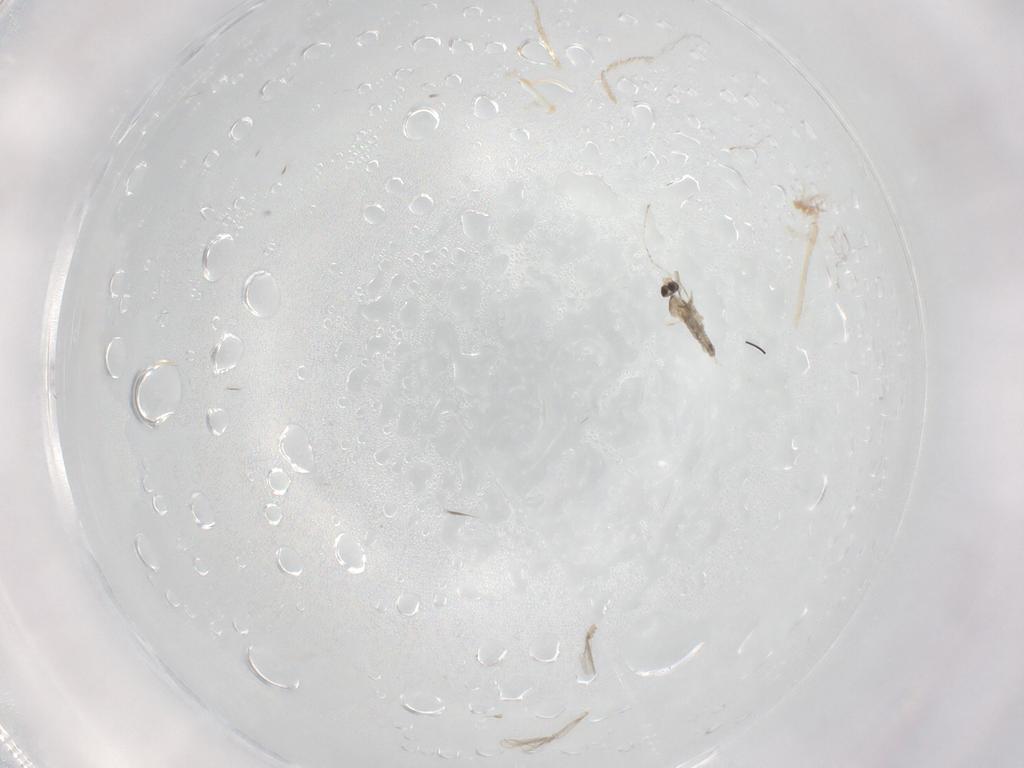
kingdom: Animalia
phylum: Arthropoda
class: Insecta
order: Diptera
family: Cecidomyiidae
